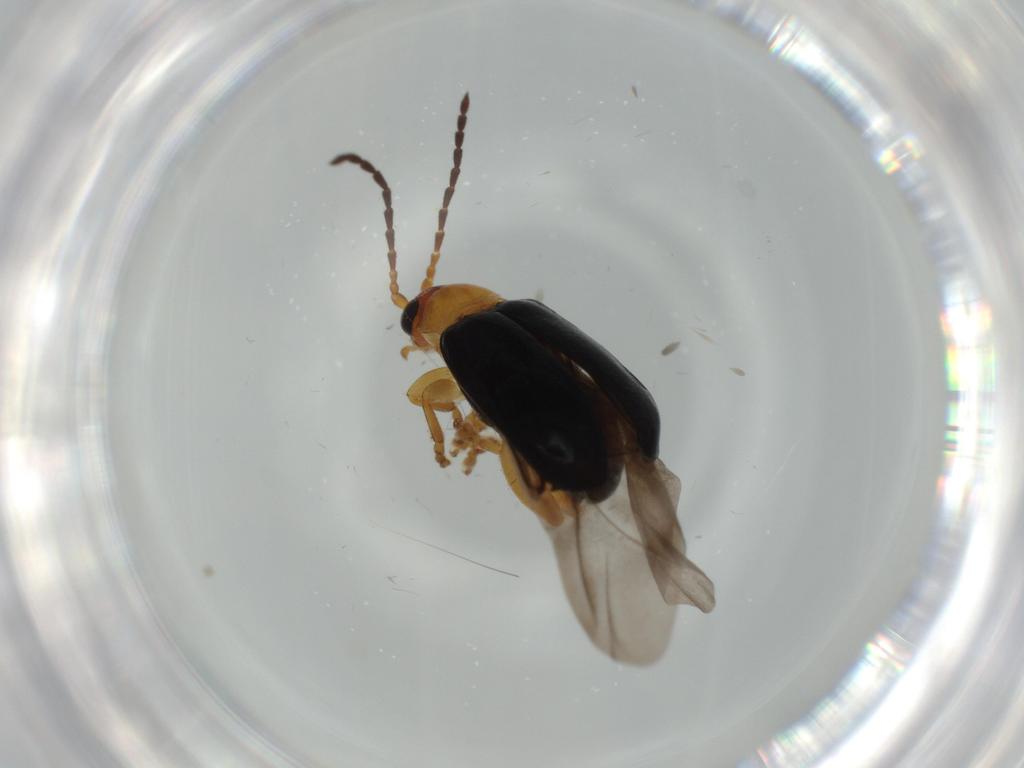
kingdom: Animalia
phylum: Arthropoda
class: Insecta
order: Coleoptera
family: Chrysomelidae
